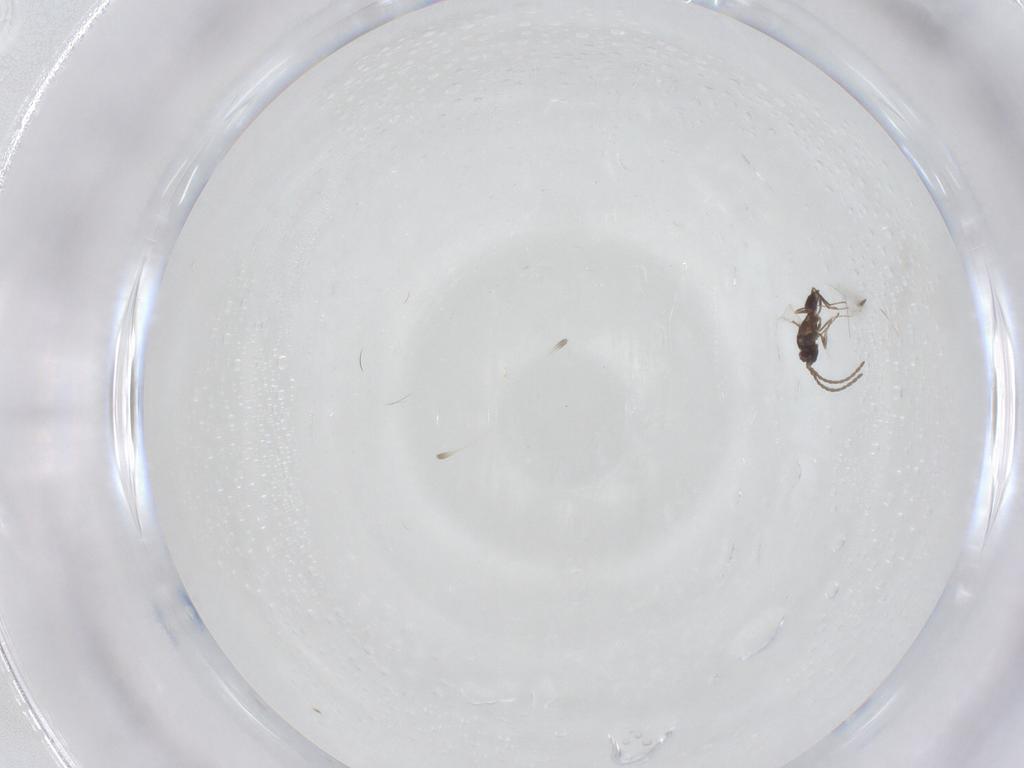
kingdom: Animalia
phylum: Arthropoda
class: Insecta
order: Hymenoptera
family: Mymaridae
